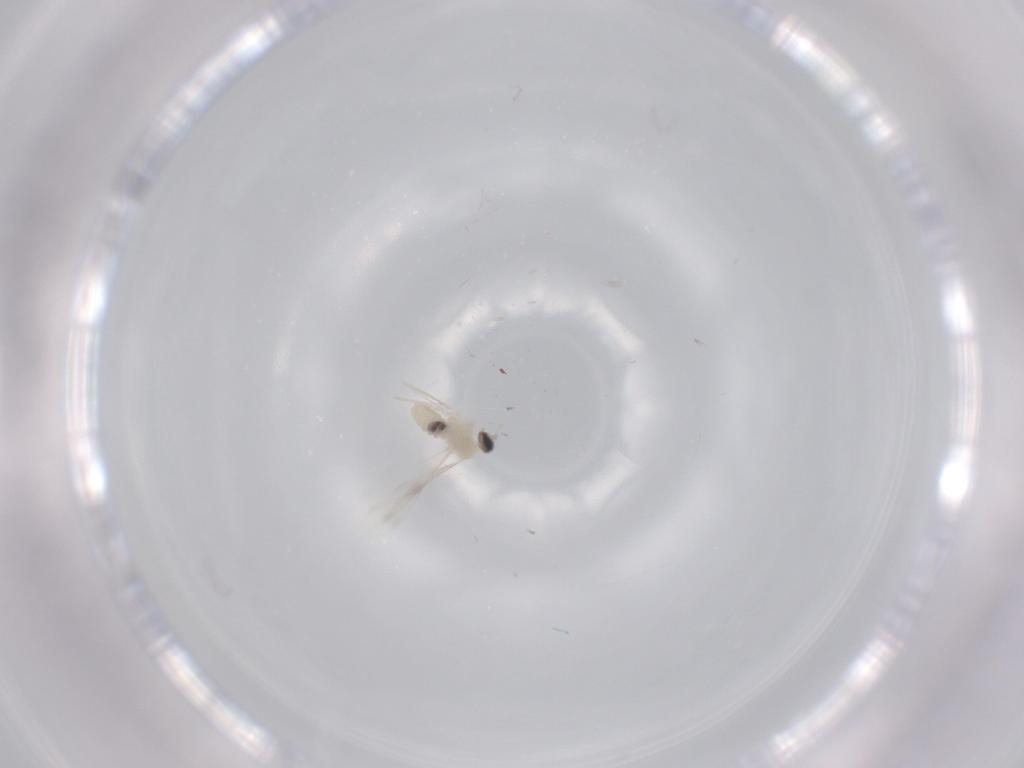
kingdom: Animalia
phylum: Arthropoda
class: Insecta
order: Diptera
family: Cecidomyiidae
